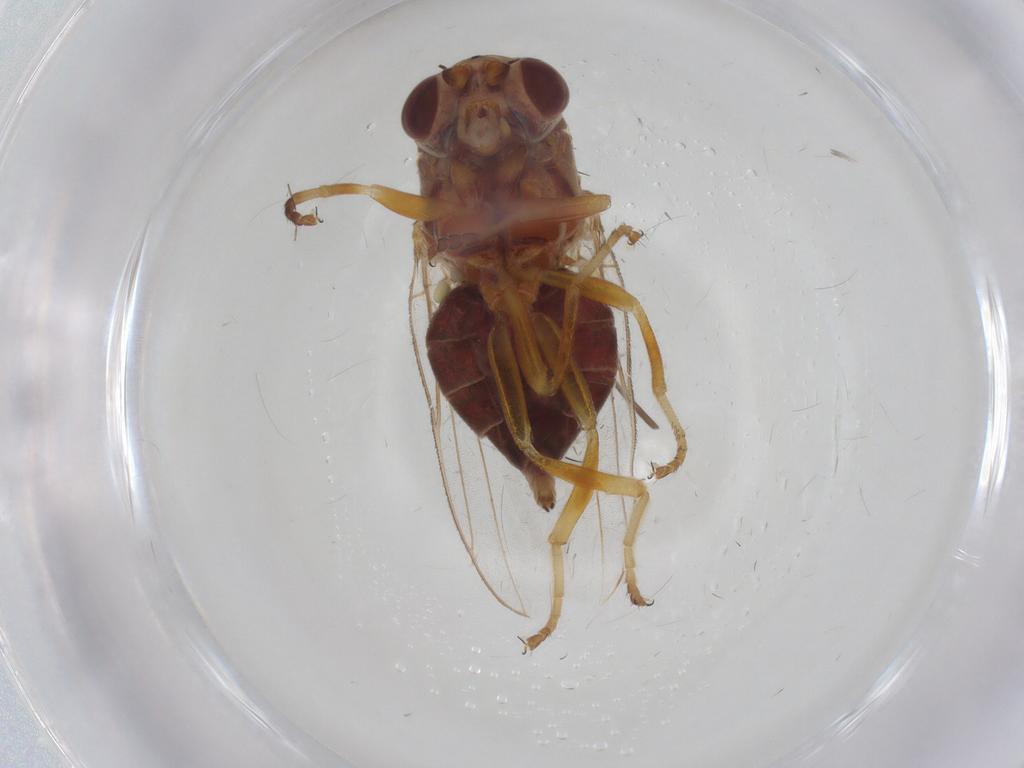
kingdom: Animalia
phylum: Arthropoda
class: Insecta
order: Diptera
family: Chloropidae
